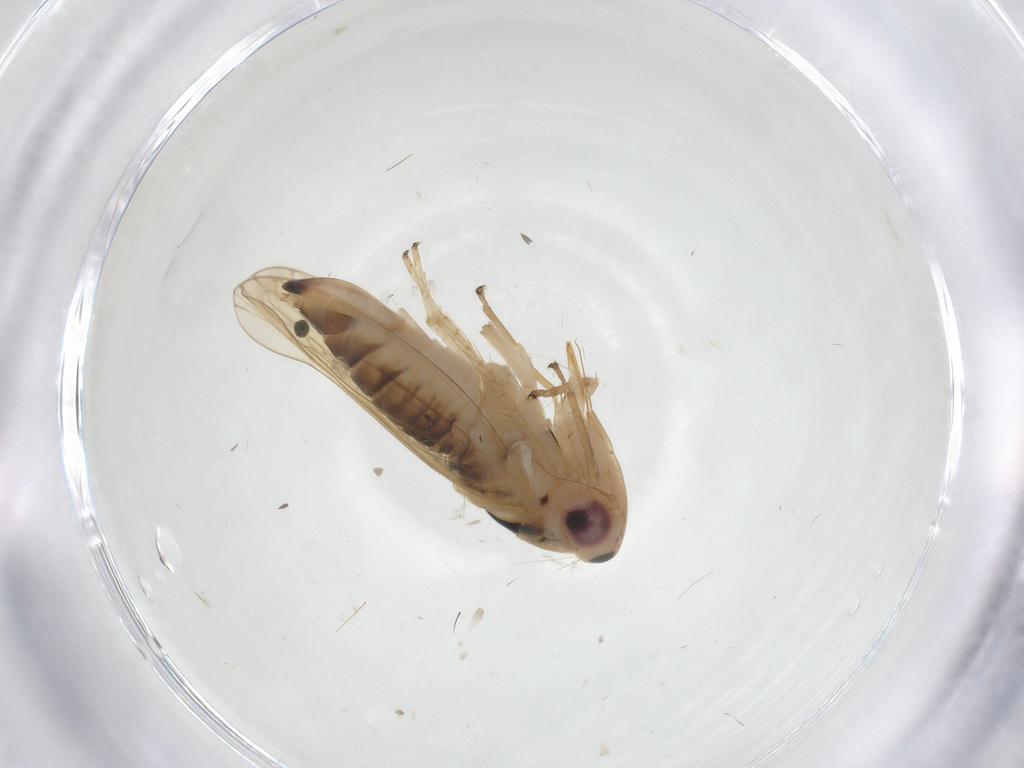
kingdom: Animalia
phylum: Arthropoda
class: Insecta
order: Hemiptera
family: Cicadellidae
